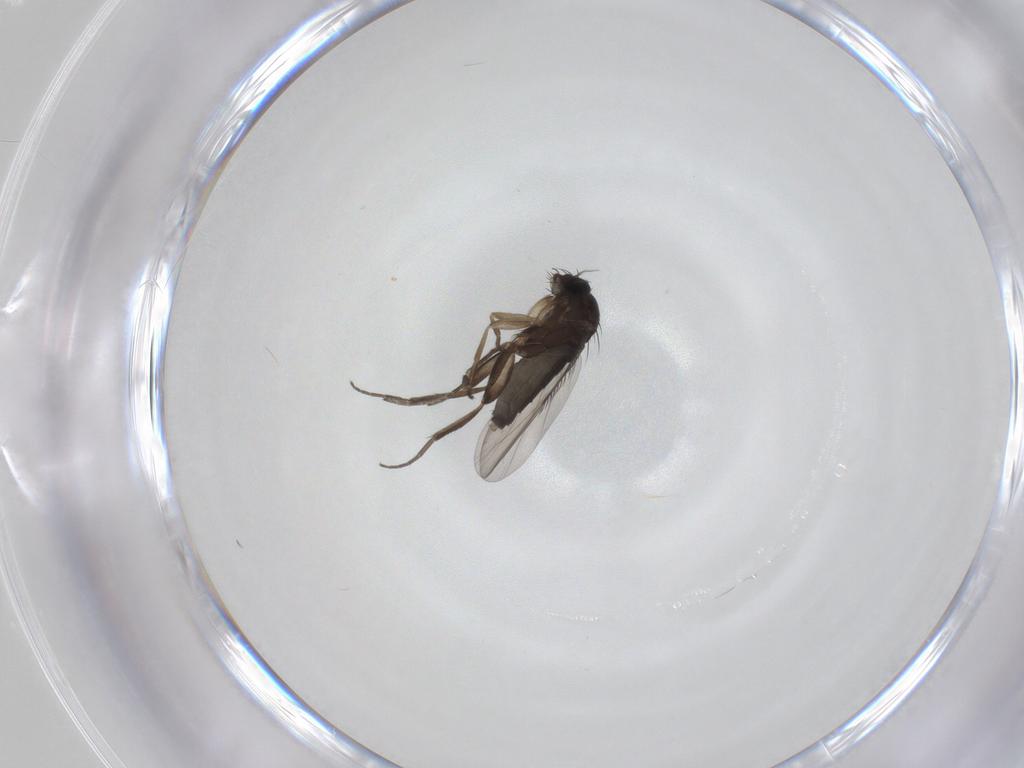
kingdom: Animalia
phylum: Arthropoda
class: Insecta
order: Diptera
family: Phoridae
